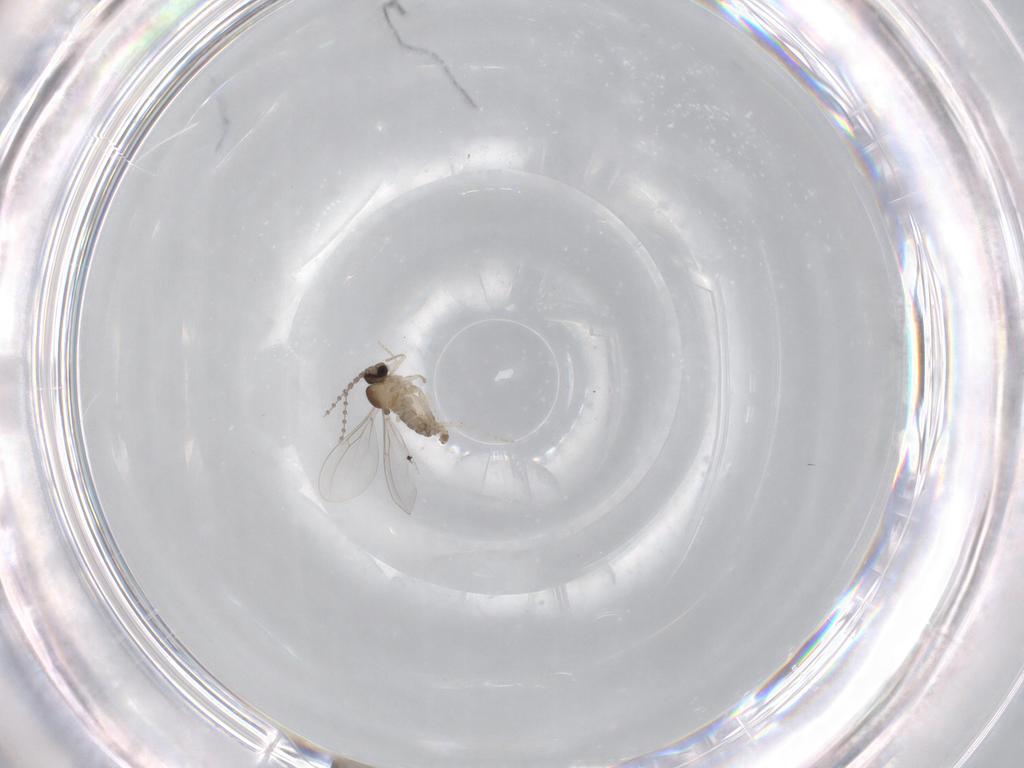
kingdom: Animalia
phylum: Arthropoda
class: Insecta
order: Diptera
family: Cecidomyiidae
